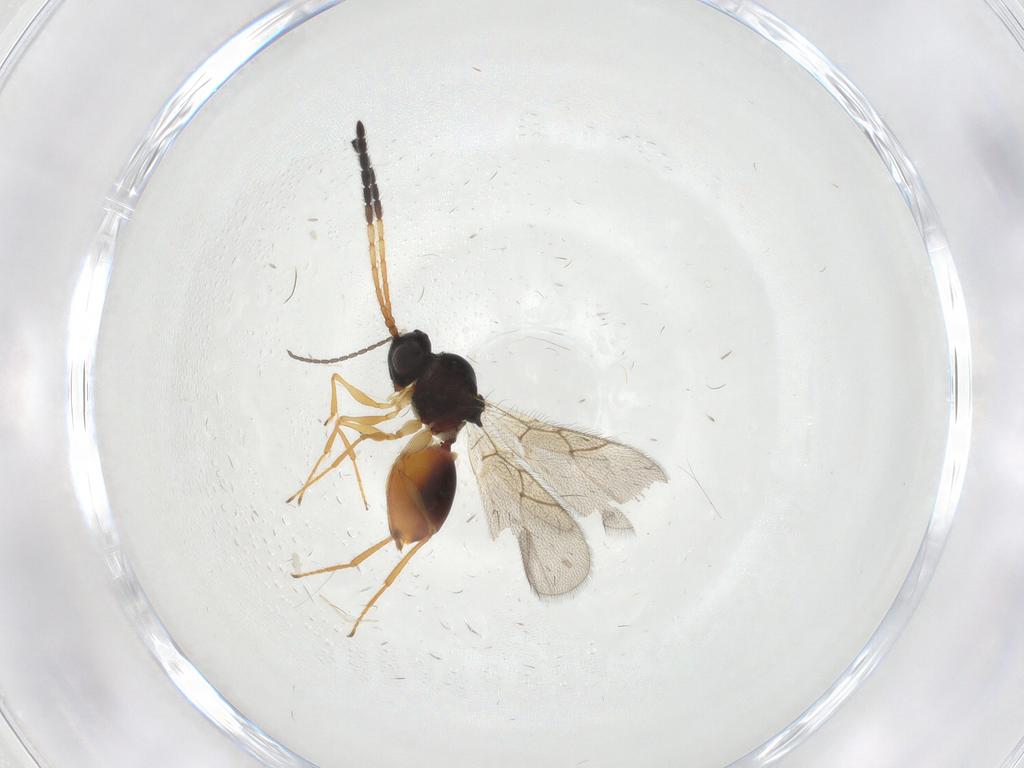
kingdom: Animalia
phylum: Arthropoda
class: Insecta
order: Hymenoptera
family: Figitidae
